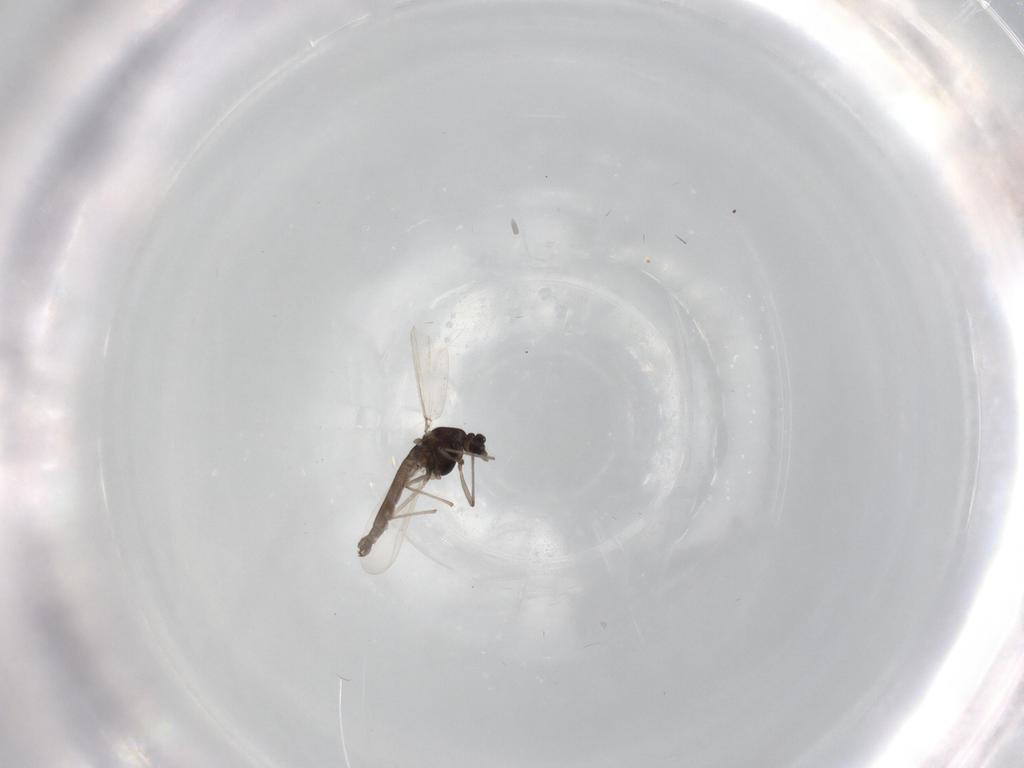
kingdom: Animalia
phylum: Arthropoda
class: Insecta
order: Diptera
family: Chironomidae
